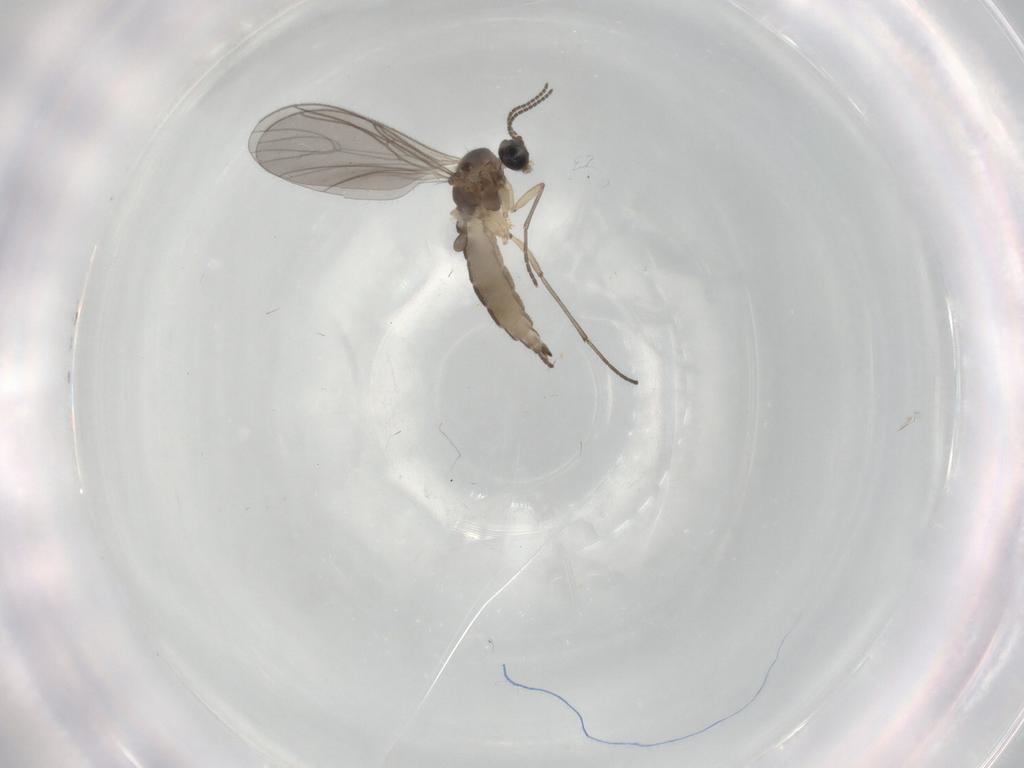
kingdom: Animalia
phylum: Arthropoda
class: Insecta
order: Diptera
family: Sciaridae
